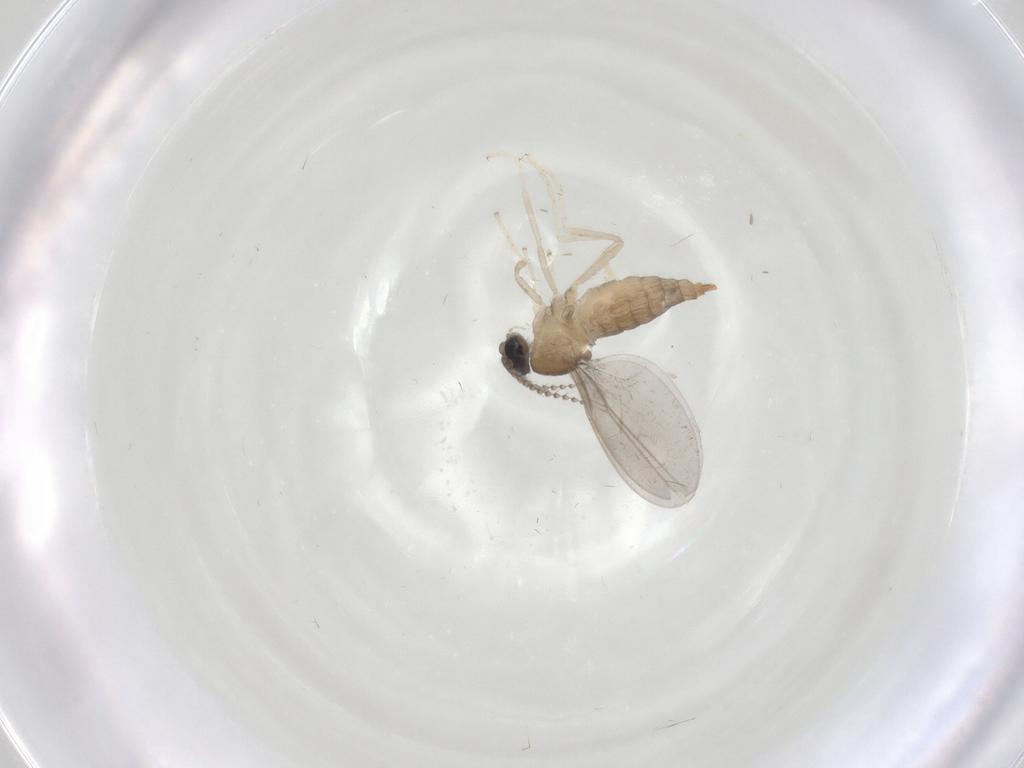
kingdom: Animalia
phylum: Arthropoda
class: Insecta
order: Diptera
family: Cecidomyiidae
